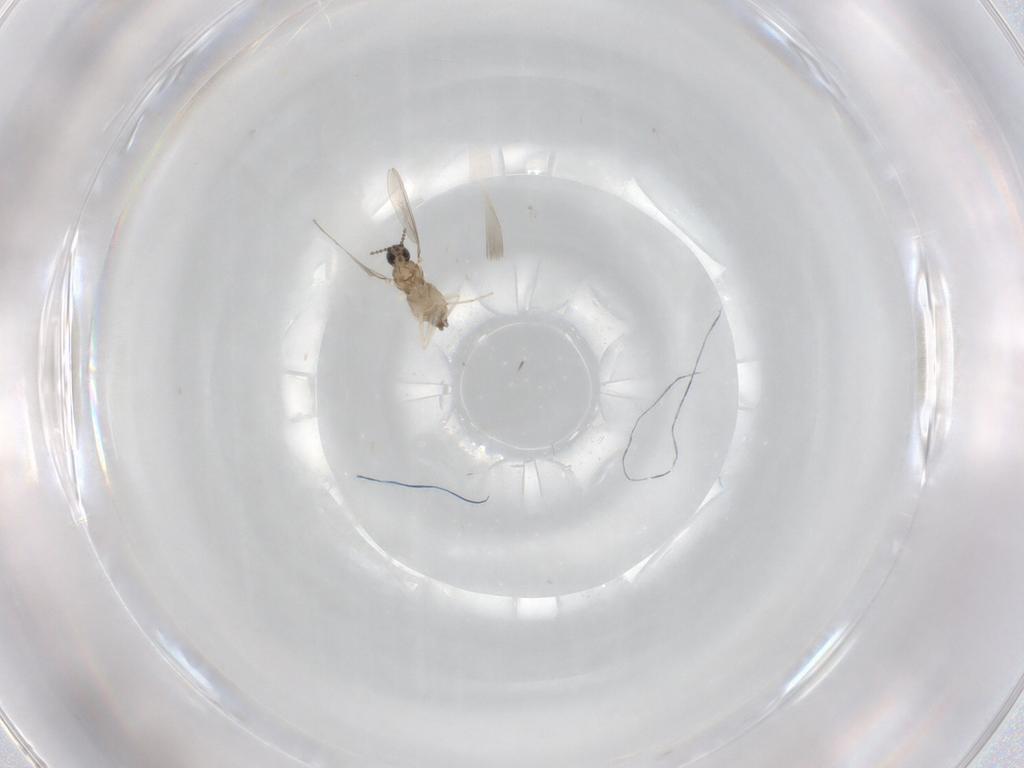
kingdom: Animalia
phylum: Arthropoda
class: Insecta
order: Diptera
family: Cecidomyiidae
